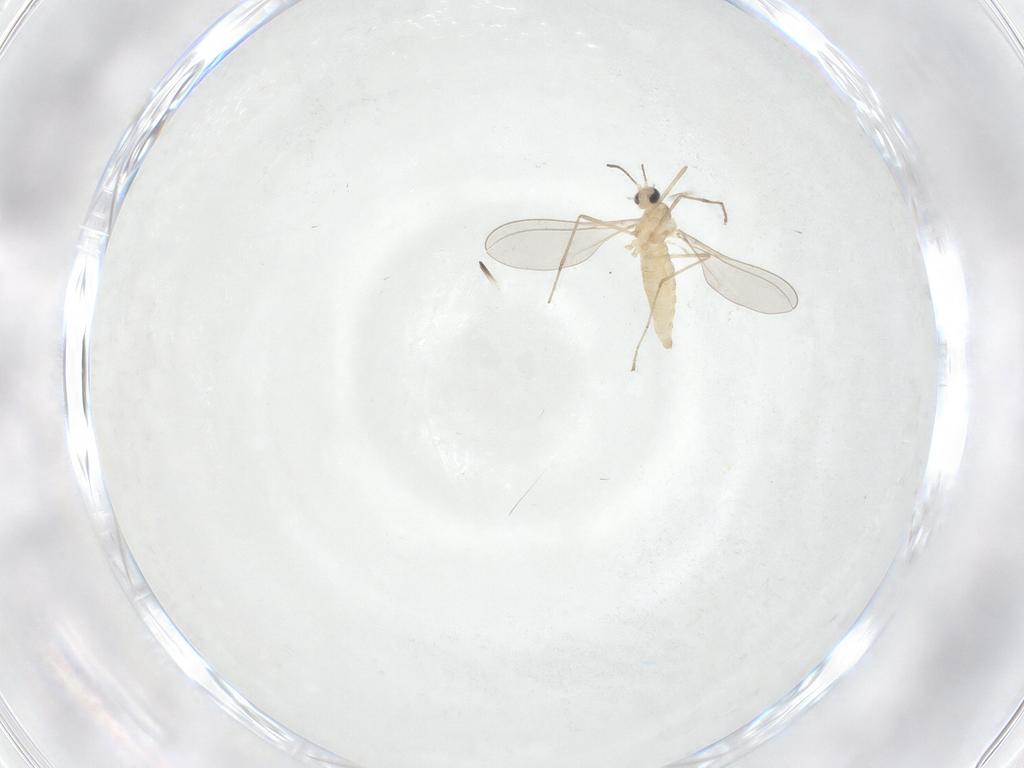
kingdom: Animalia
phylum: Arthropoda
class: Insecta
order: Diptera
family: Cecidomyiidae
